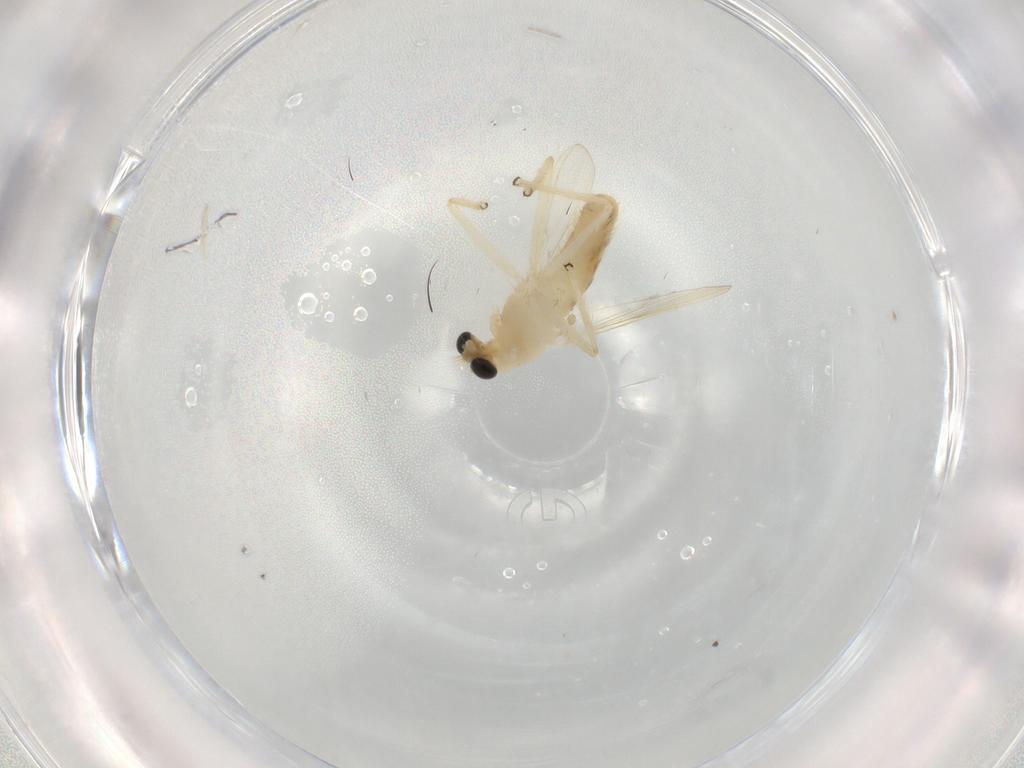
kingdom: Animalia
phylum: Arthropoda
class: Insecta
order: Diptera
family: Chironomidae
